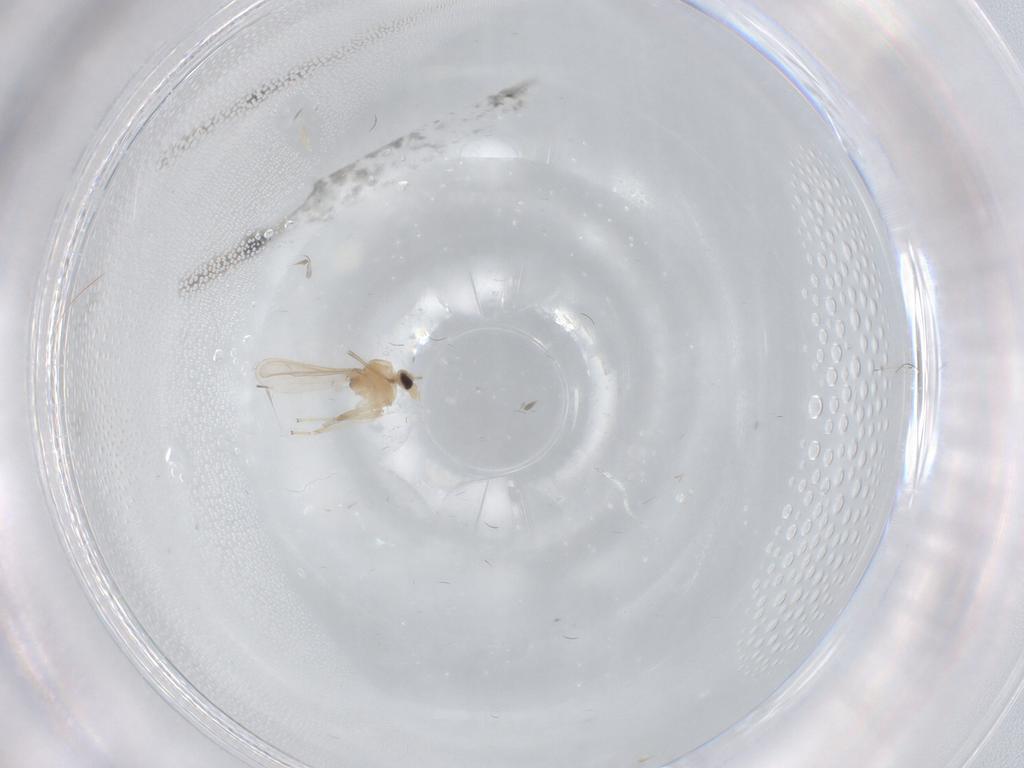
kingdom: Animalia
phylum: Arthropoda
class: Insecta
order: Diptera
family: Chironomidae
